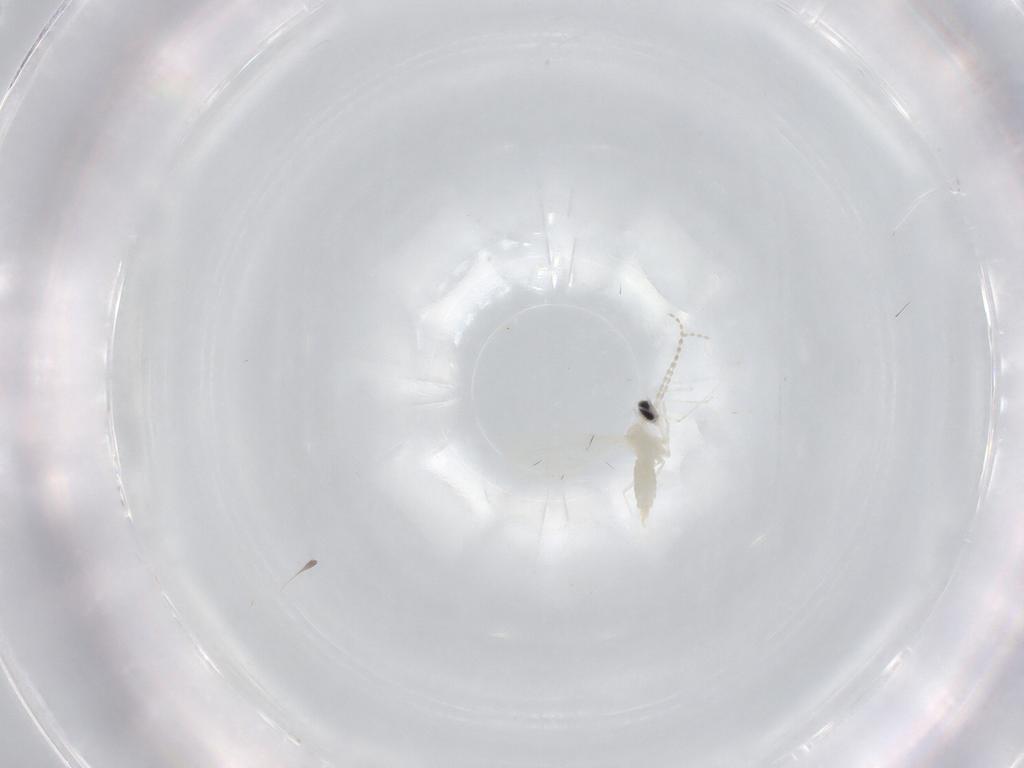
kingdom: Animalia
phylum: Arthropoda
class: Insecta
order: Diptera
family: Cecidomyiidae
